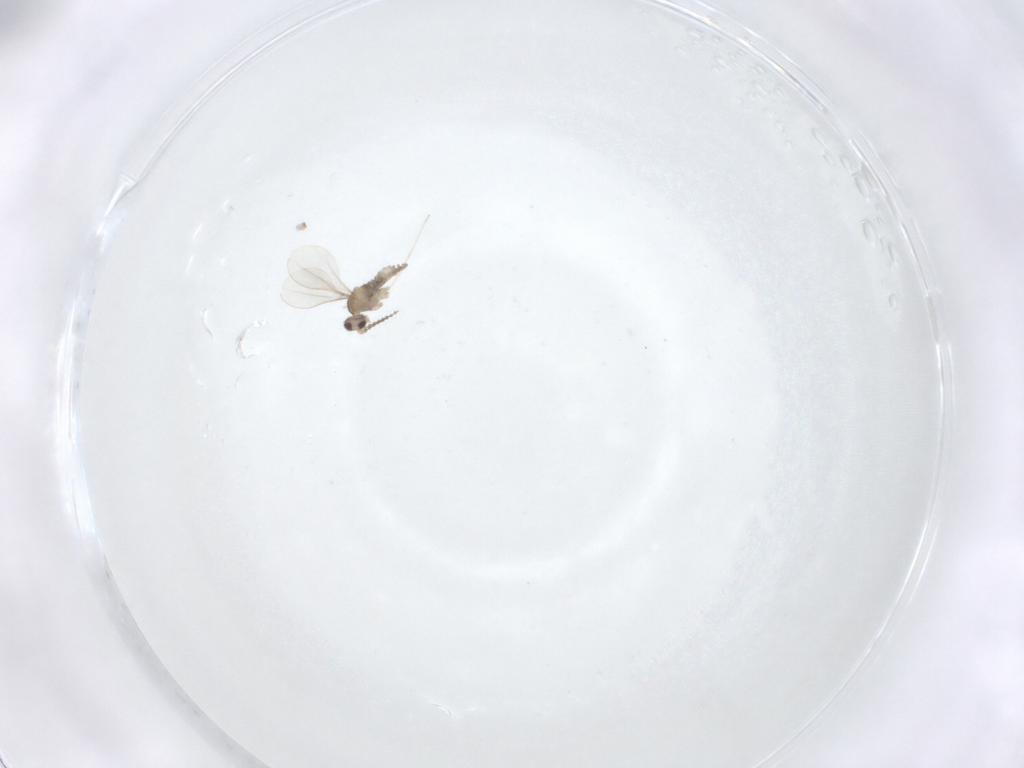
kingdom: Animalia
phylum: Arthropoda
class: Insecta
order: Diptera
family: Cecidomyiidae
